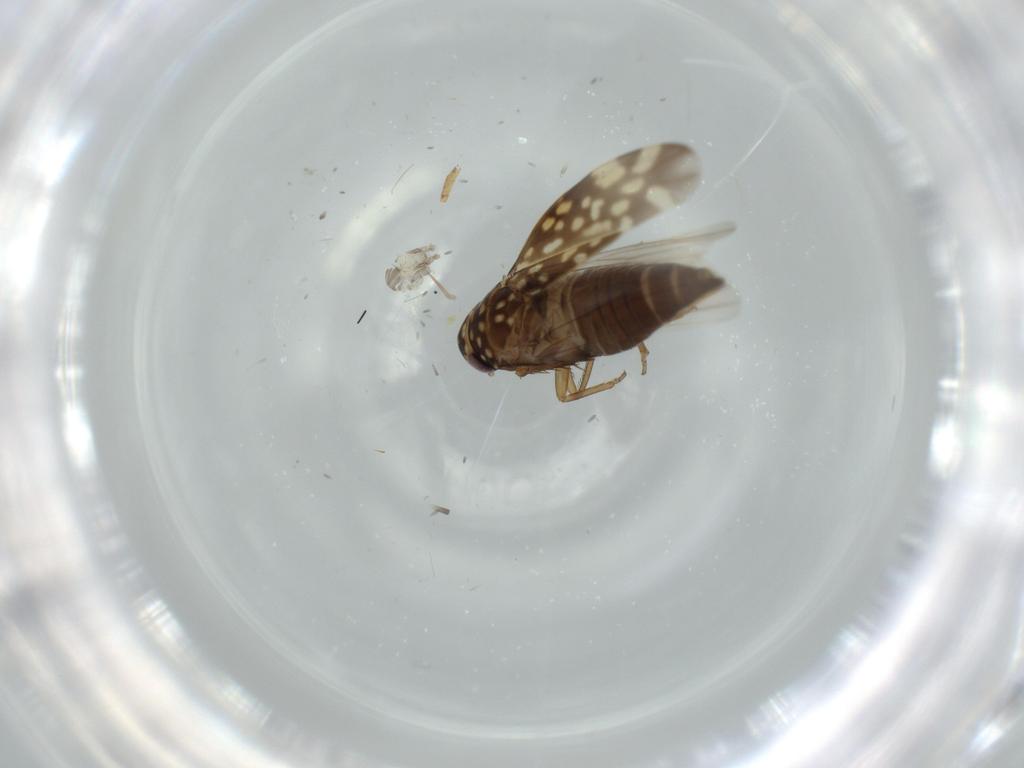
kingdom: Animalia
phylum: Arthropoda
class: Insecta
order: Hemiptera
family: Cicadellidae
